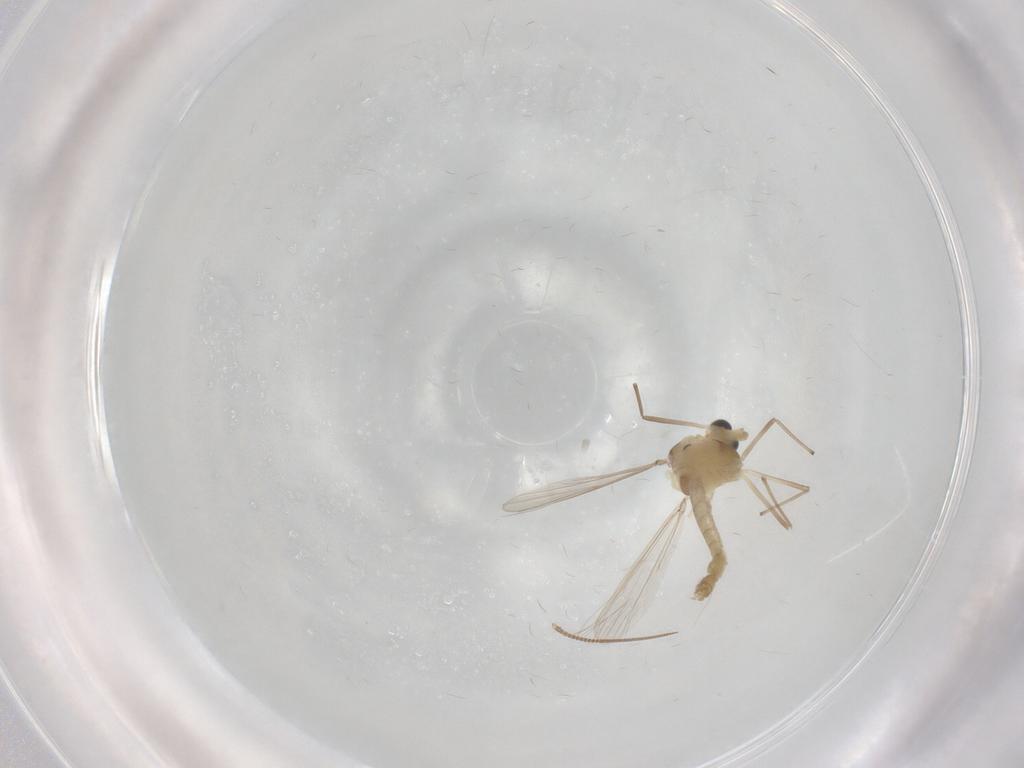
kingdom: Animalia
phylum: Arthropoda
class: Insecta
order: Diptera
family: Chironomidae
